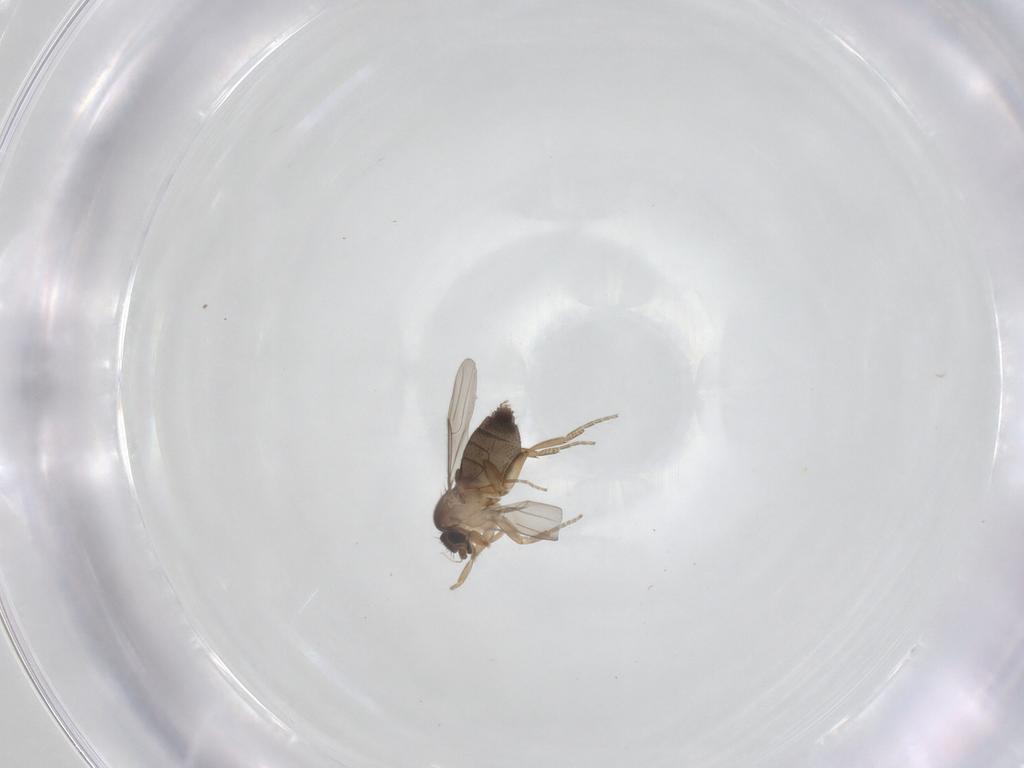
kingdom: Animalia
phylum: Arthropoda
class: Insecta
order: Diptera
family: Phoridae
